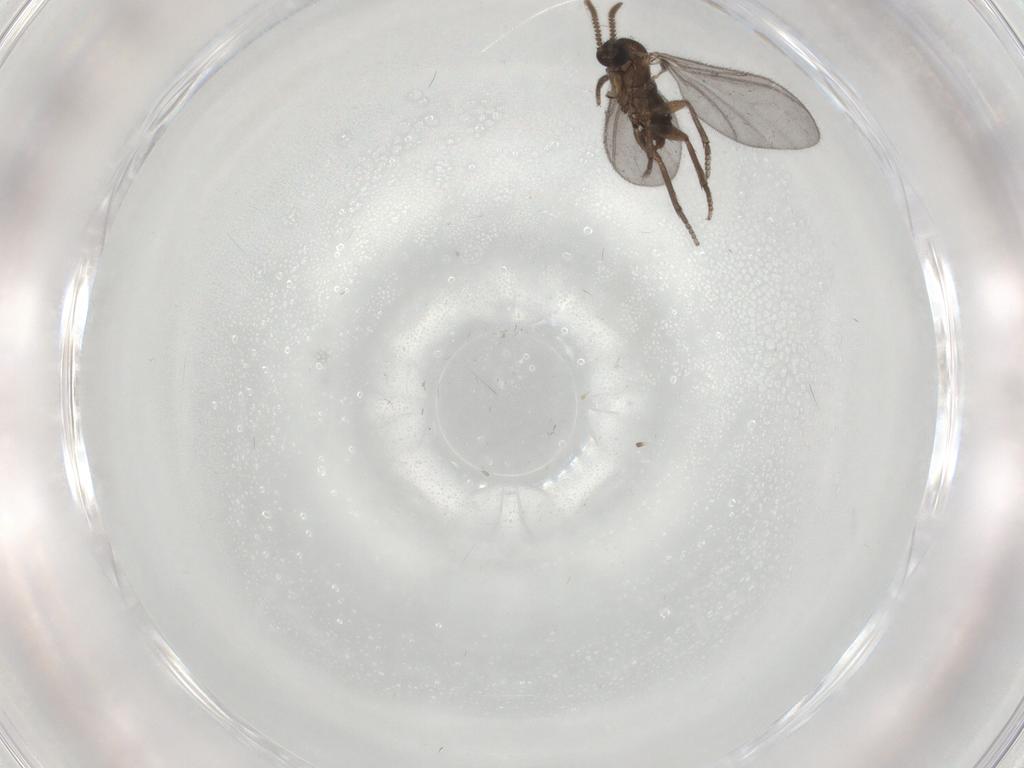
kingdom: Animalia
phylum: Arthropoda
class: Insecta
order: Diptera
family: Sciaridae
